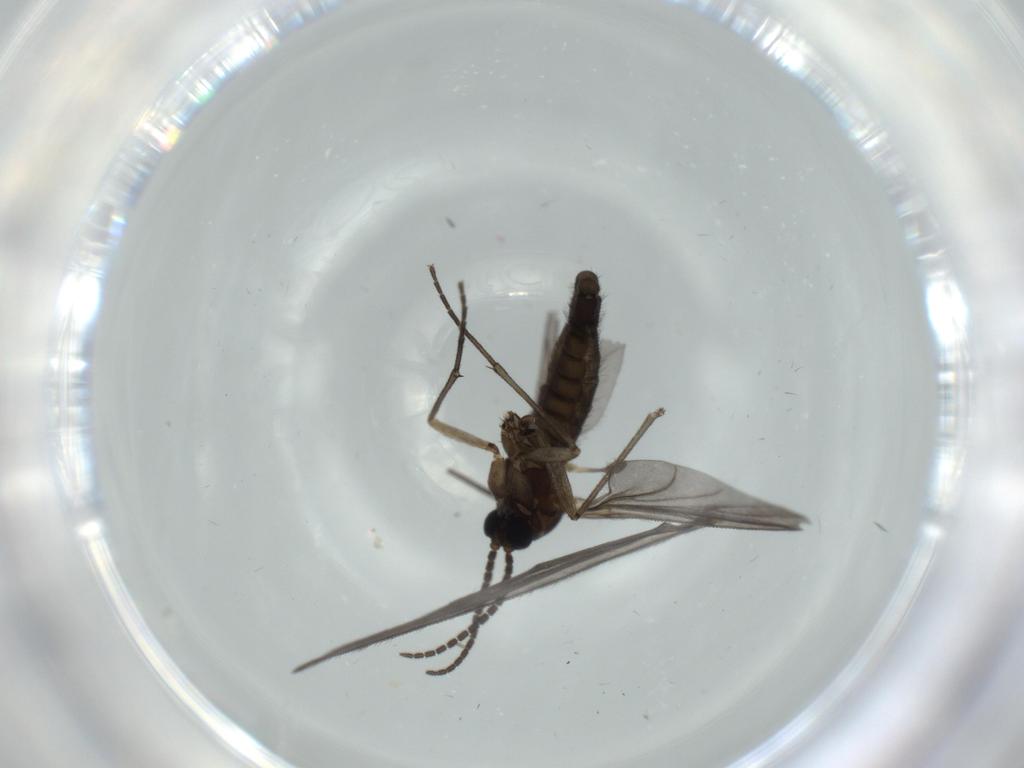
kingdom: Animalia
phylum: Arthropoda
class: Insecta
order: Diptera
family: Sciaridae
